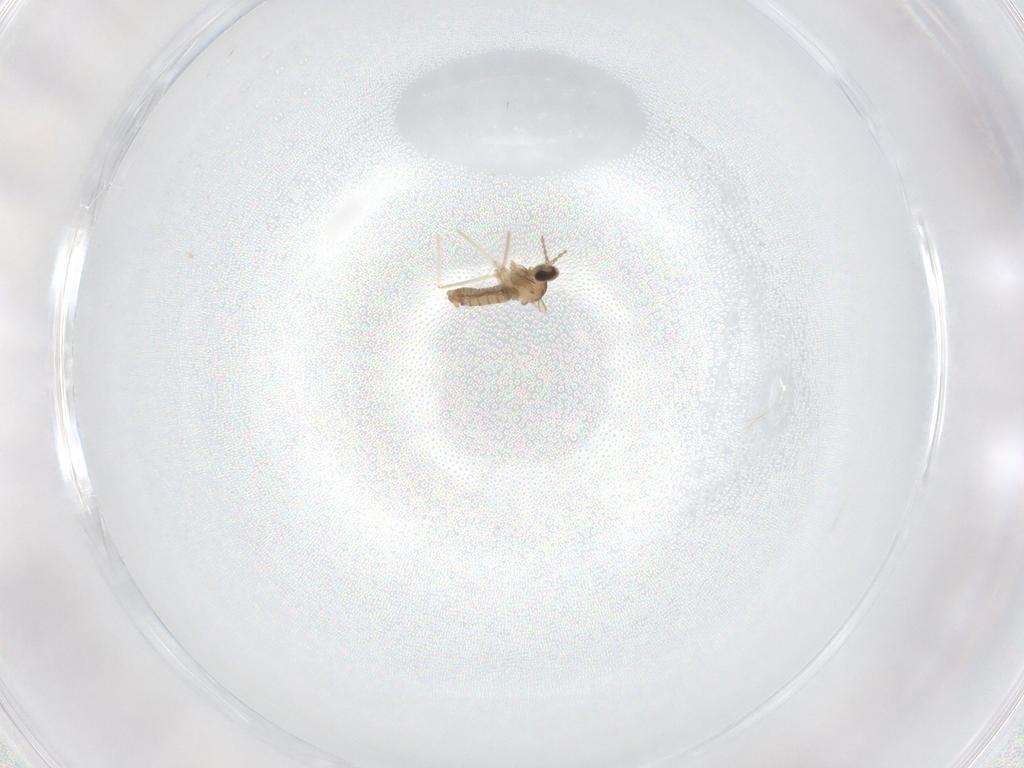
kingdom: Animalia
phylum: Arthropoda
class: Insecta
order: Diptera
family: Cecidomyiidae
